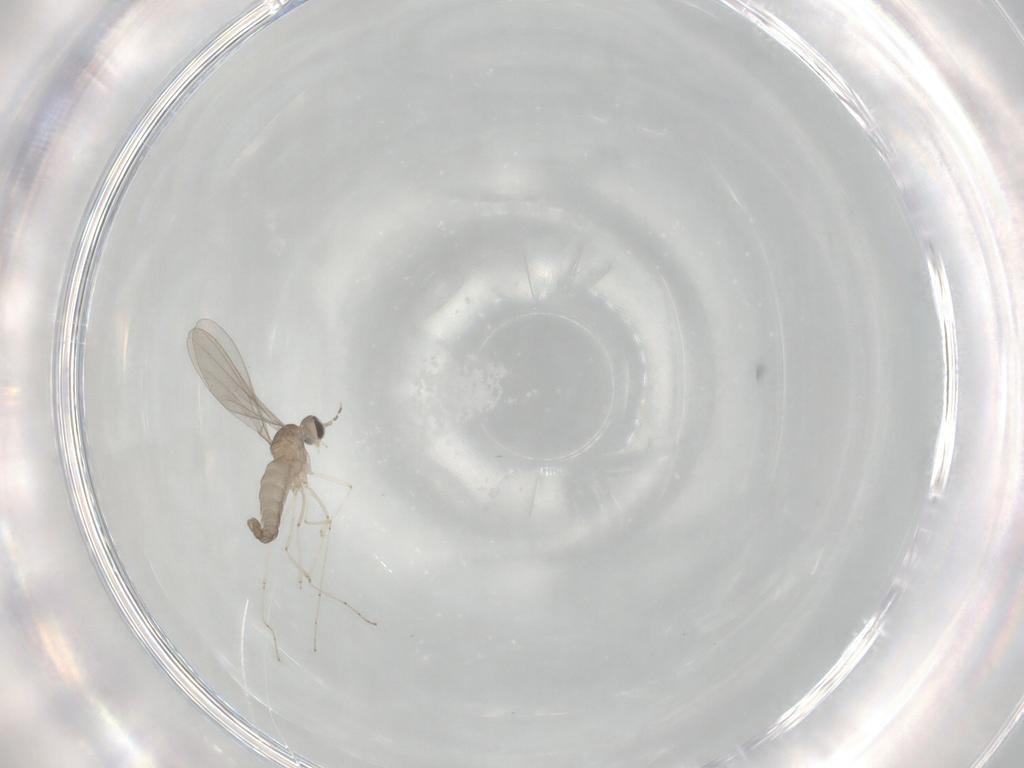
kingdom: Animalia
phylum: Arthropoda
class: Insecta
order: Diptera
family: Cecidomyiidae
